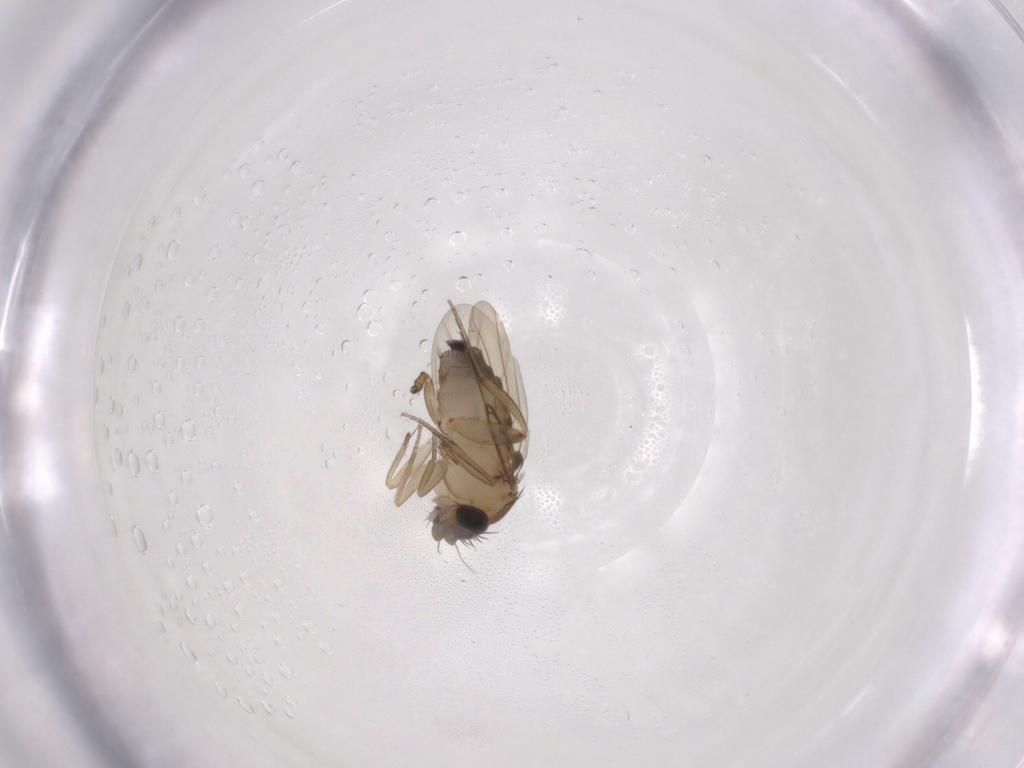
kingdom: Animalia
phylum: Arthropoda
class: Insecta
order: Diptera
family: Phoridae
